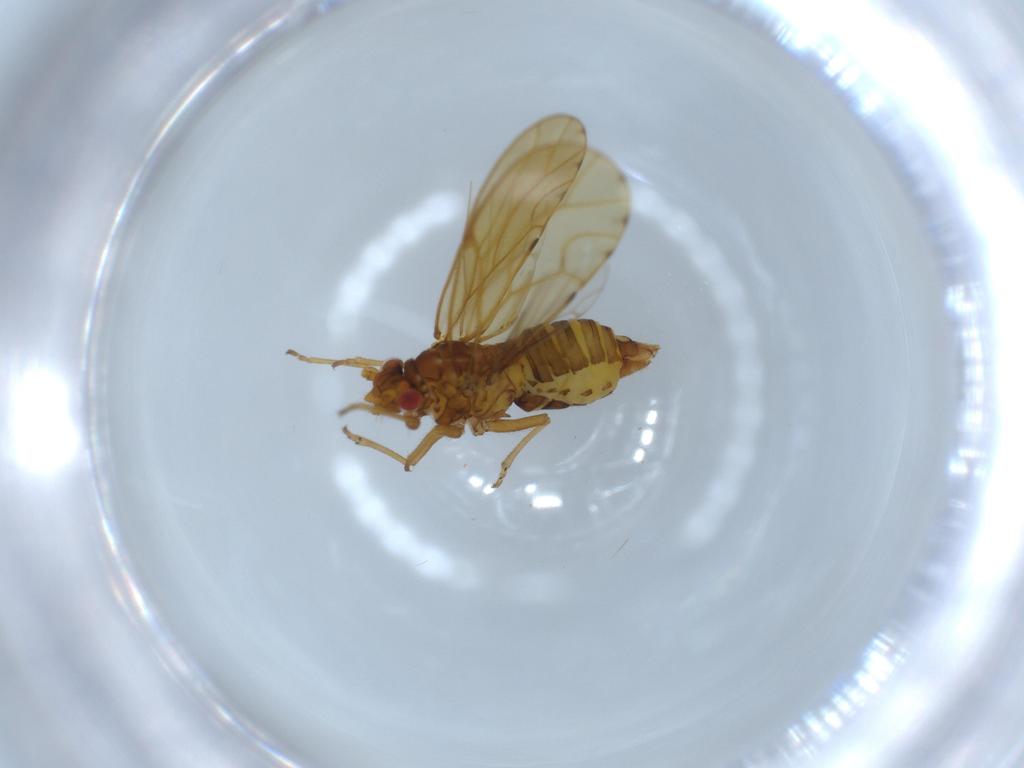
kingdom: Animalia
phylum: Arthropoda
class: Insecta
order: Hemiptera
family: Psylloidea_incertae_sedis
